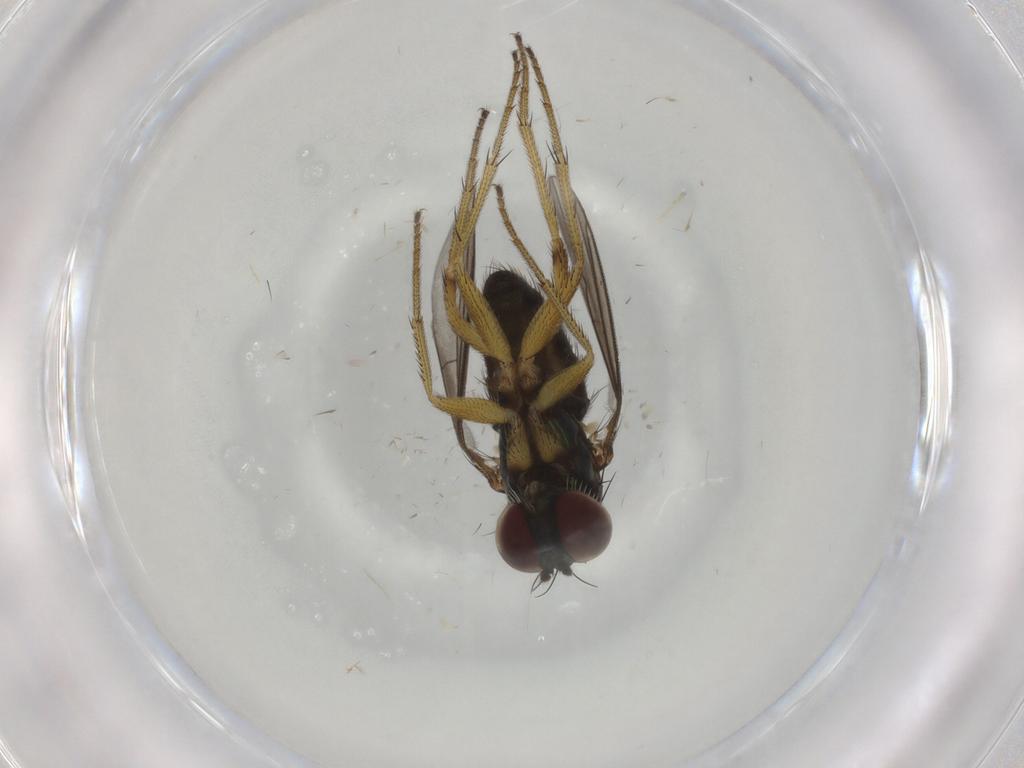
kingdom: Animalia
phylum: Arthropoda
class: Insecta
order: Diptera
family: Dolichopodidae
